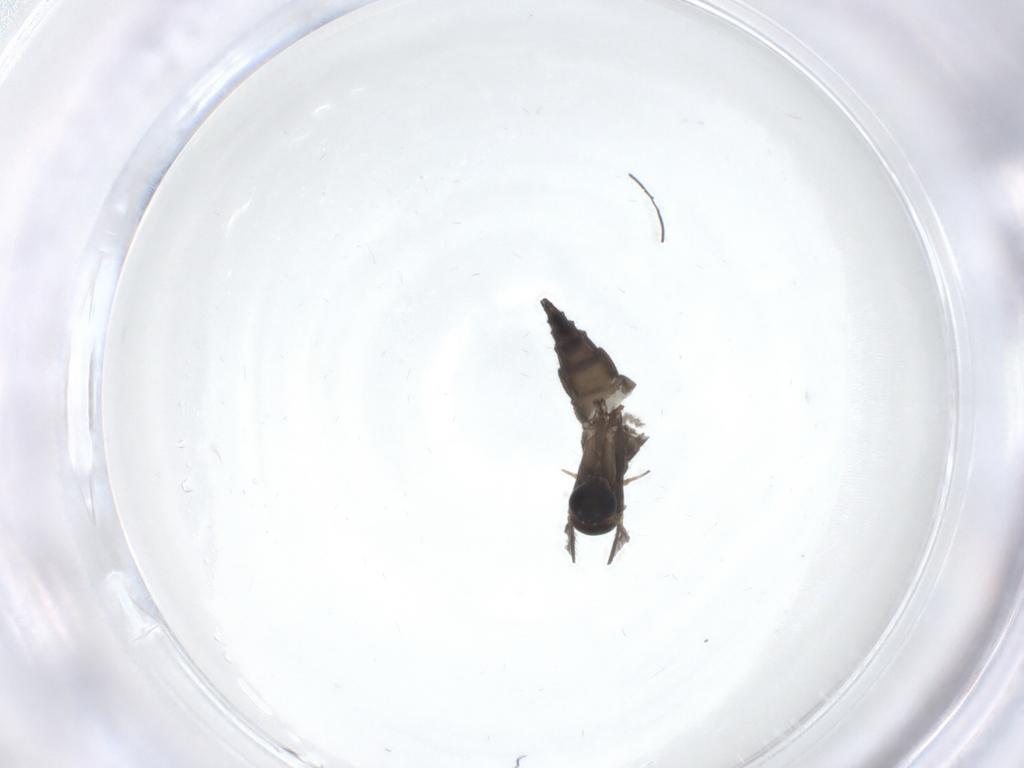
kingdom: Animalia
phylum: Arthropoda
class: Insecta
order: Diptera
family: Sciaridae
